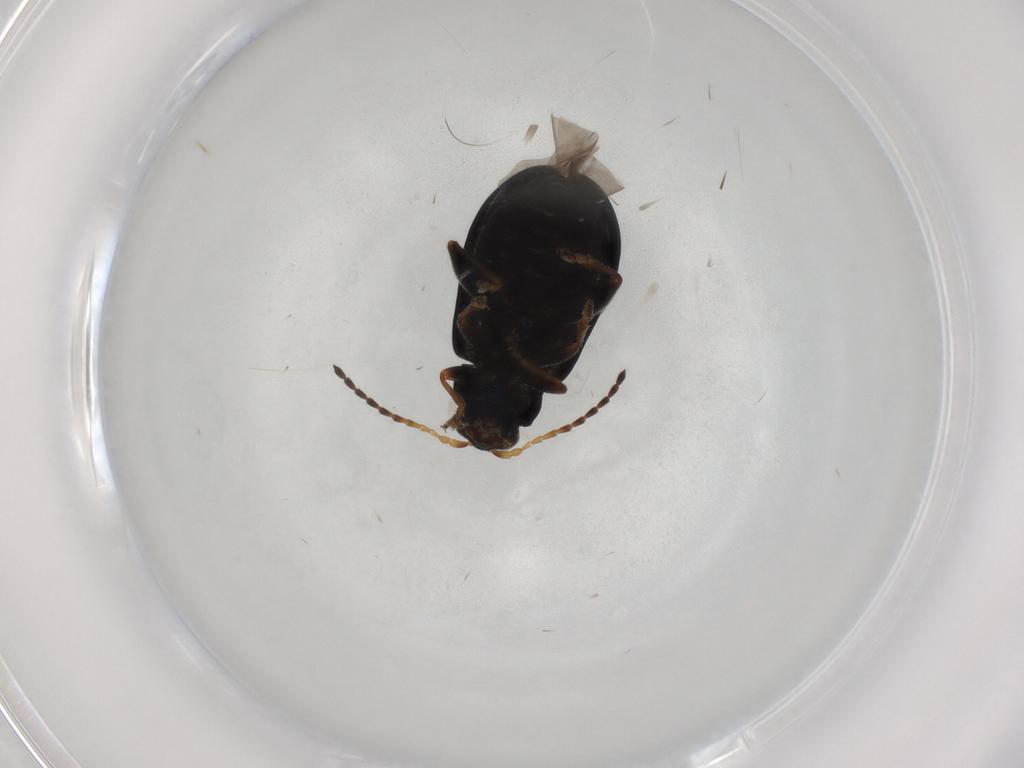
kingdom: Animalia
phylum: Arthropoda
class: Insecta
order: Coleoptera
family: Chrysomelidae
